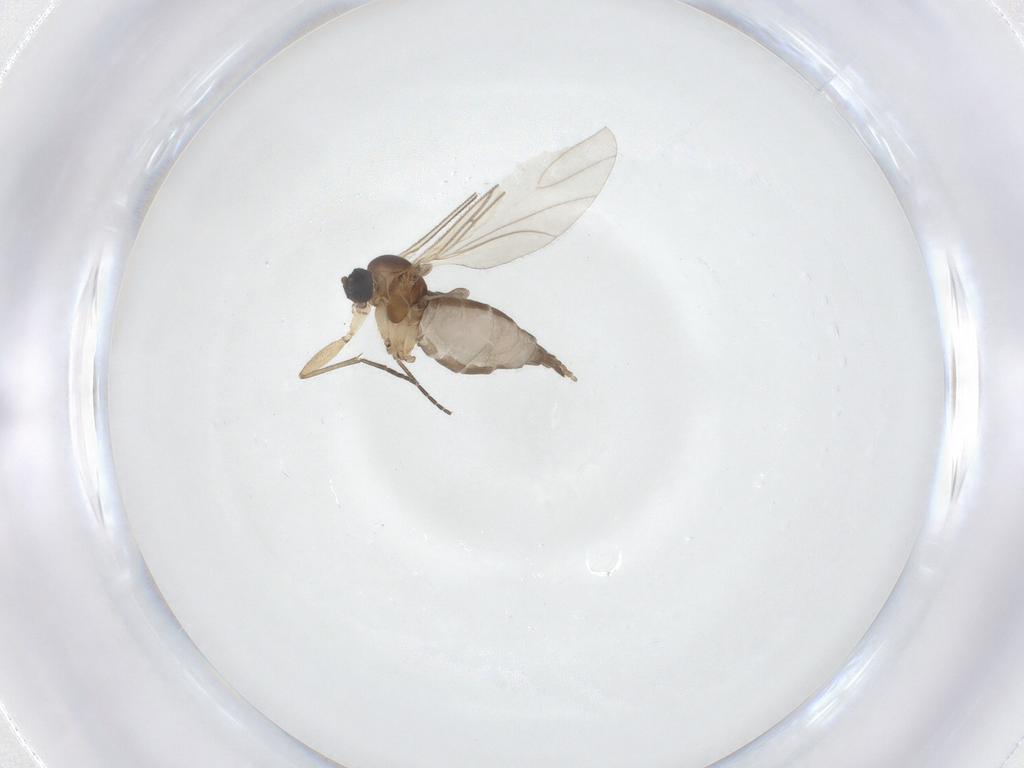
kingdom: Animalia
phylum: Arthropoda
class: Insecta
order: Diptera
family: Sciaridae
